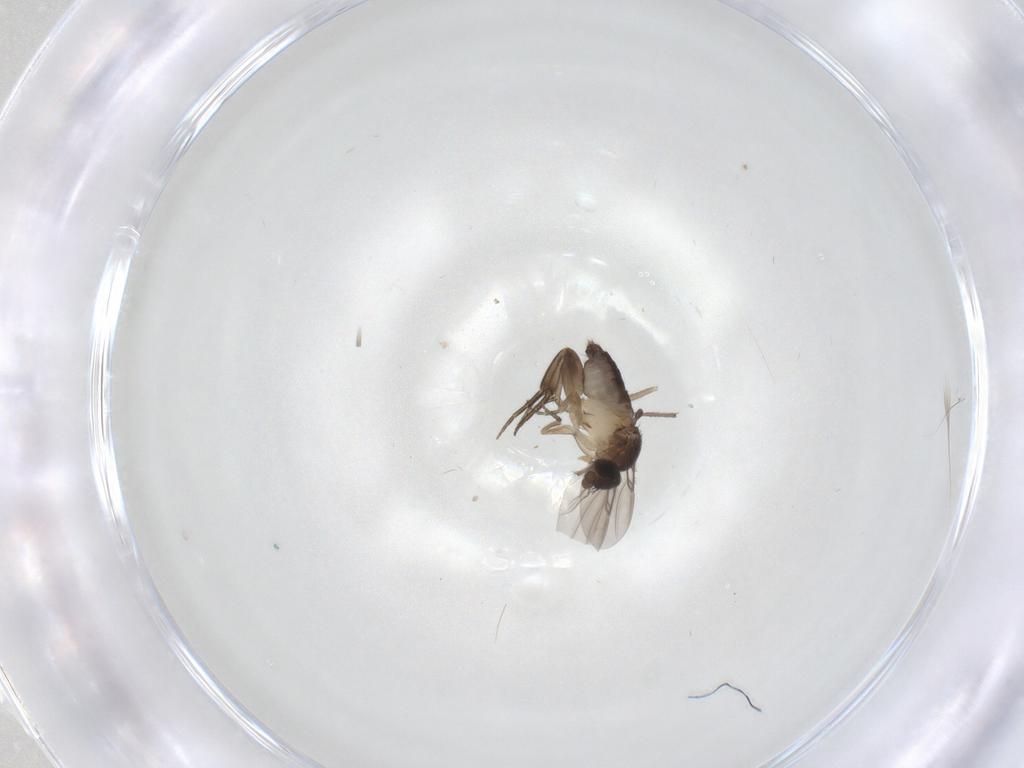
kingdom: Animalia
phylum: Arthropoda
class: Insecta
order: Diptera
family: Phoridae
